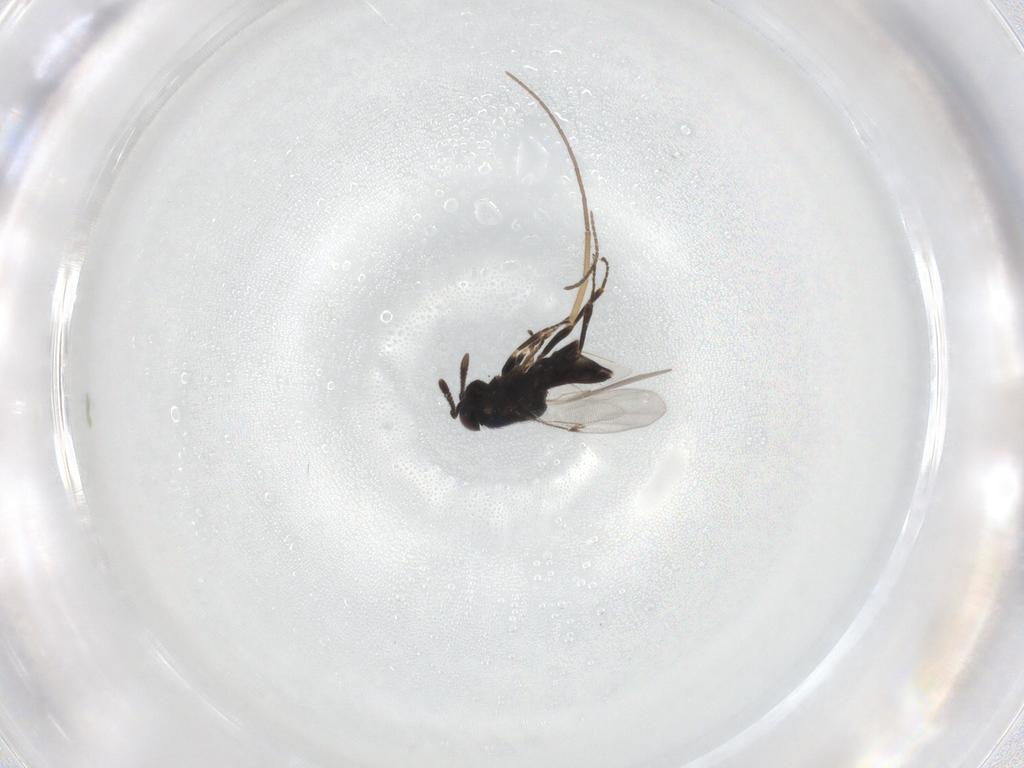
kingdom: Animalia
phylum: Arthropoda
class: Insecta
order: Hymenoptera
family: Encyrtidae
